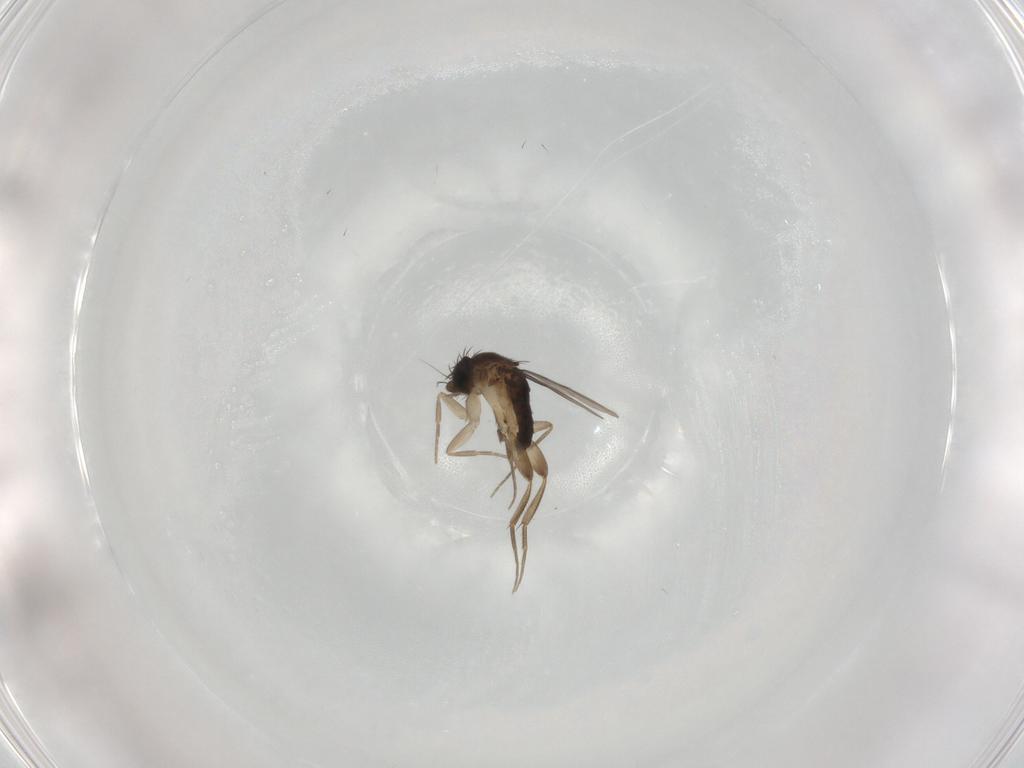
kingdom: Animalia
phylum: Arthropoda
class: Insecta
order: Diptera
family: Phoridae
